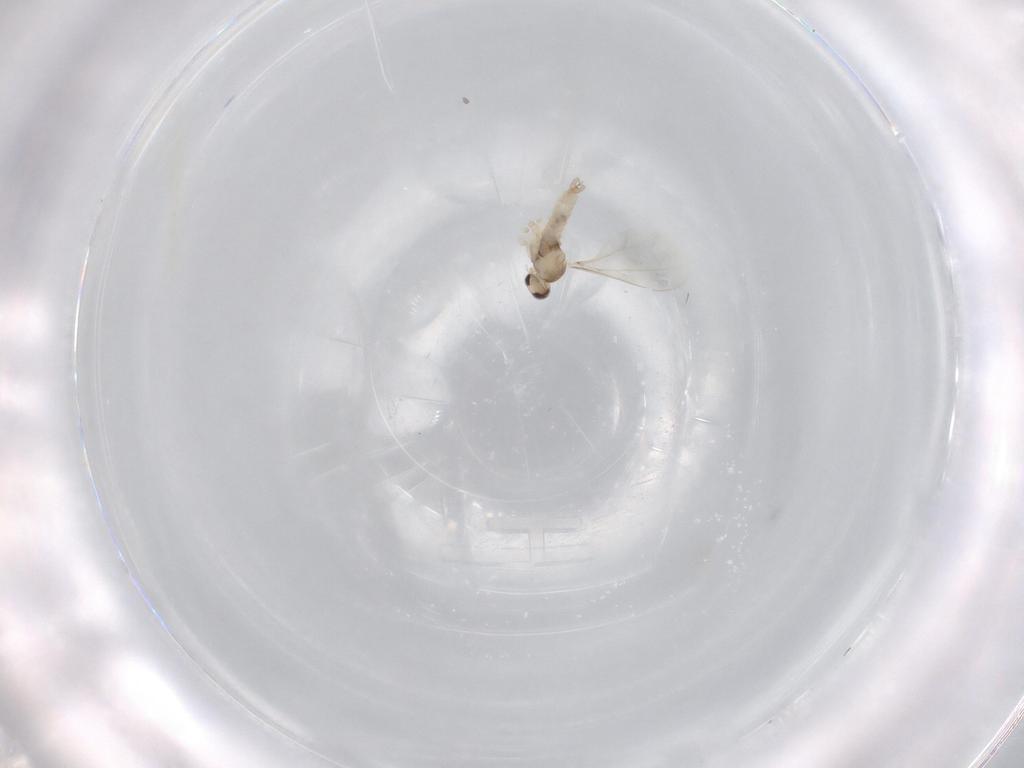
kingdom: Animalia
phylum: Arthropoda
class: Insecta
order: Diptera
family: Cecidomyiidae
